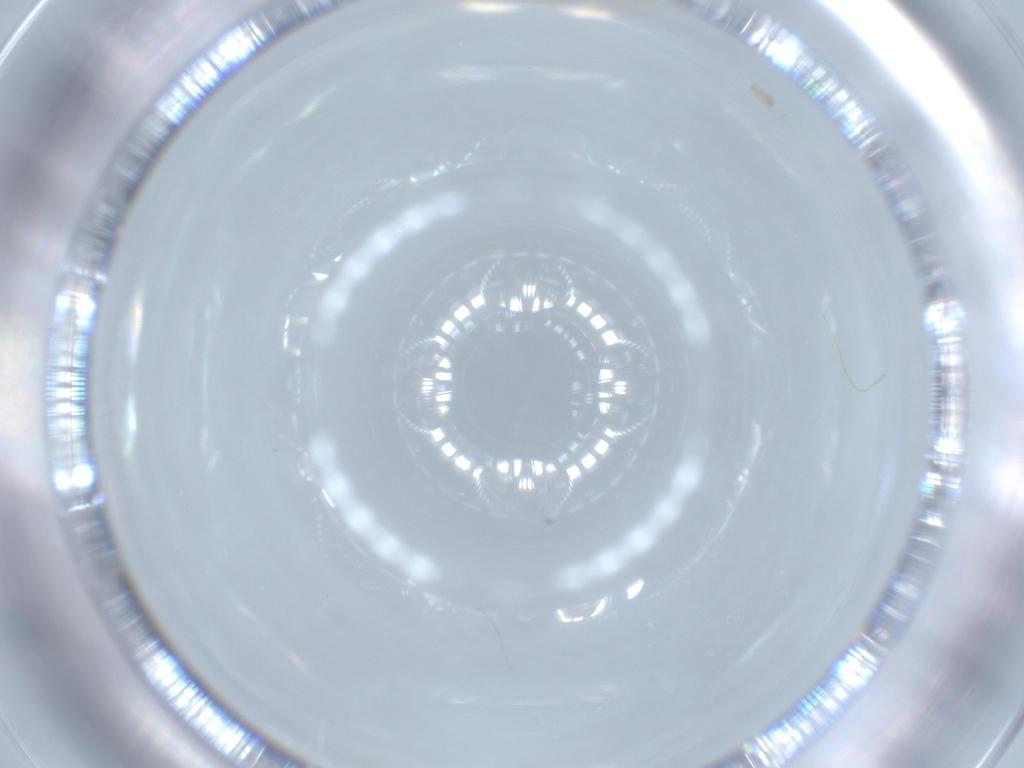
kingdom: Animalia
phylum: Arthropoda
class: Insecta
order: Diptera
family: Cecidomyiidae
